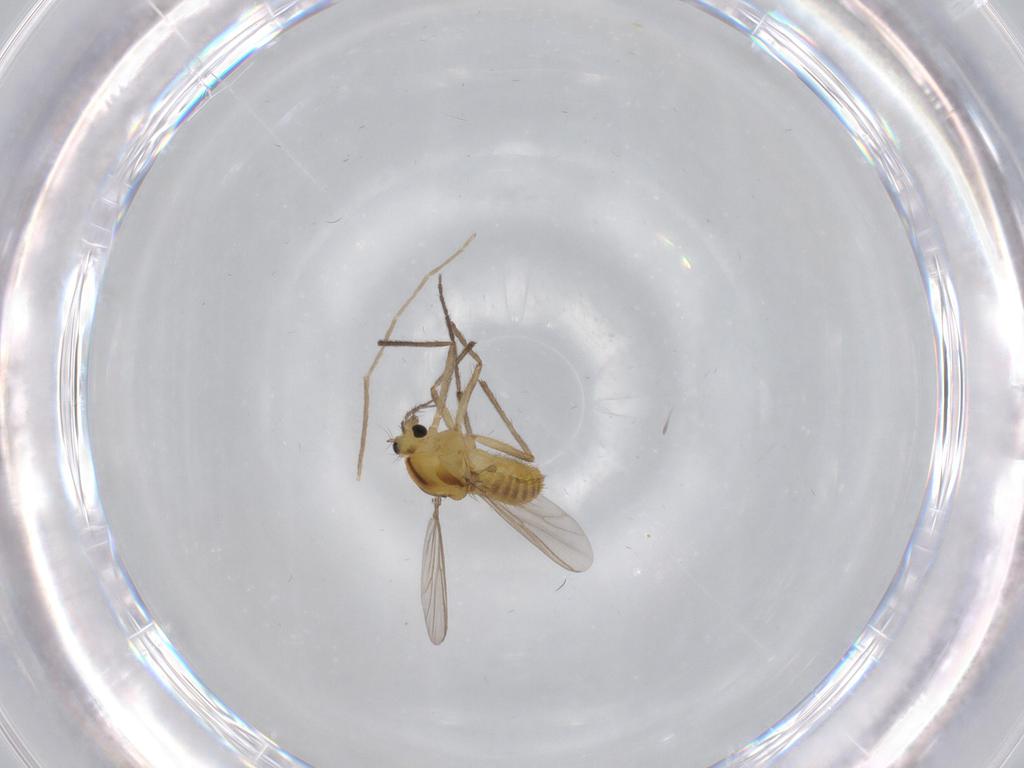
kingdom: Animalia
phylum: Arthropoda
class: Insecta
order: Diptera
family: Chironomidae
